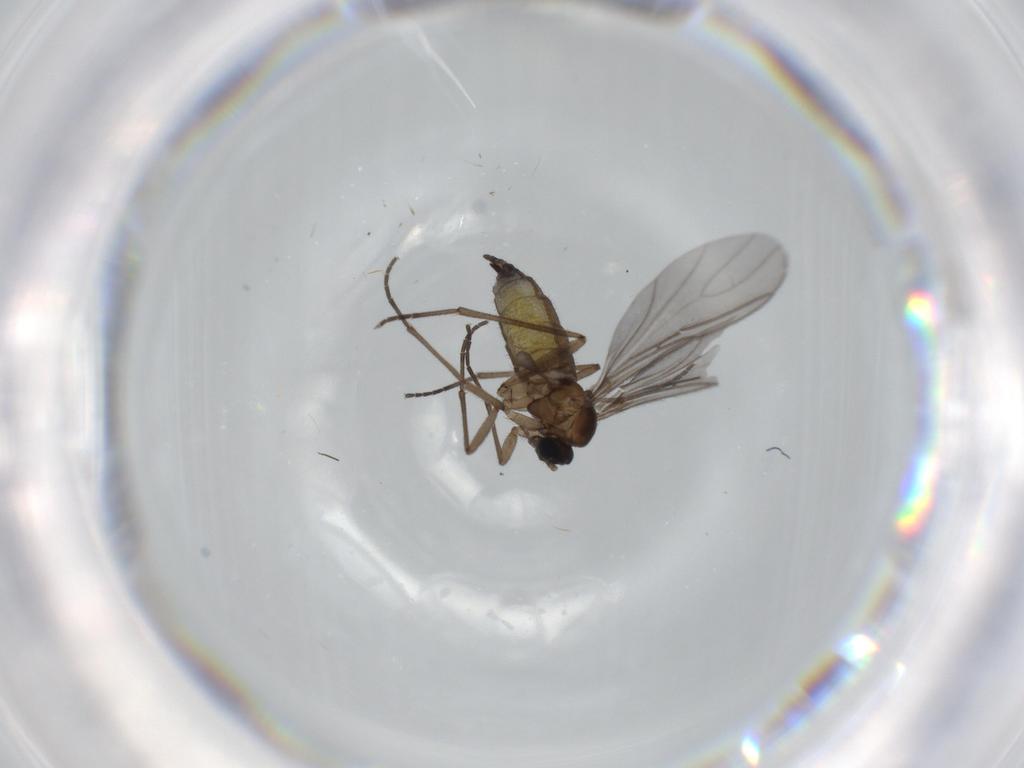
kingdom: Animalia
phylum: Arthropoda
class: Insecta
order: Diptera
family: Sciaridae
